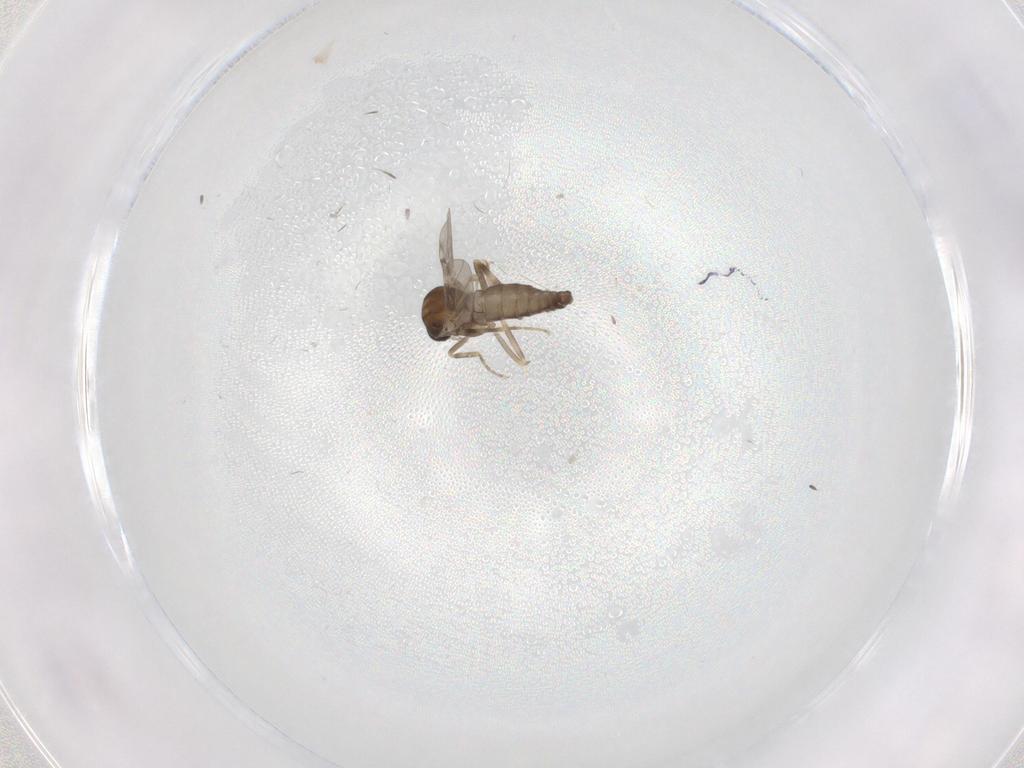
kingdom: Animalia
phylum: Arthropoda
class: Insecta
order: Diptera
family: Ceratopogonidae
